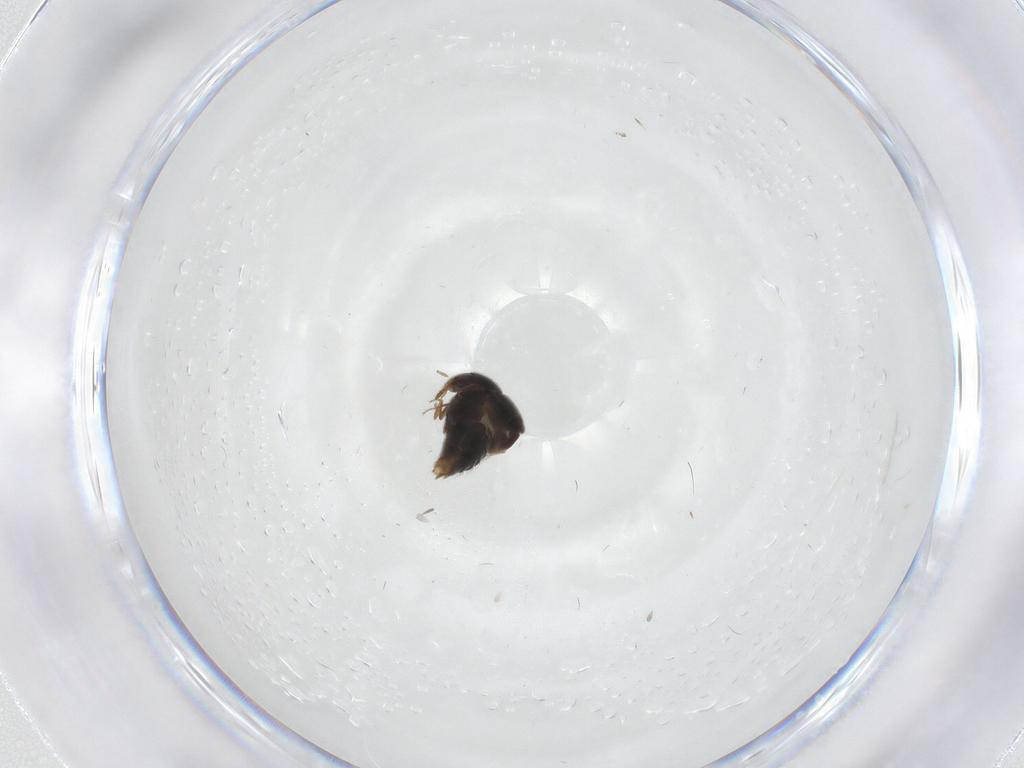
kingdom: Animalia
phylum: Arthropoda
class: Insecta
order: Coleoptera
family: Staphylinidae
